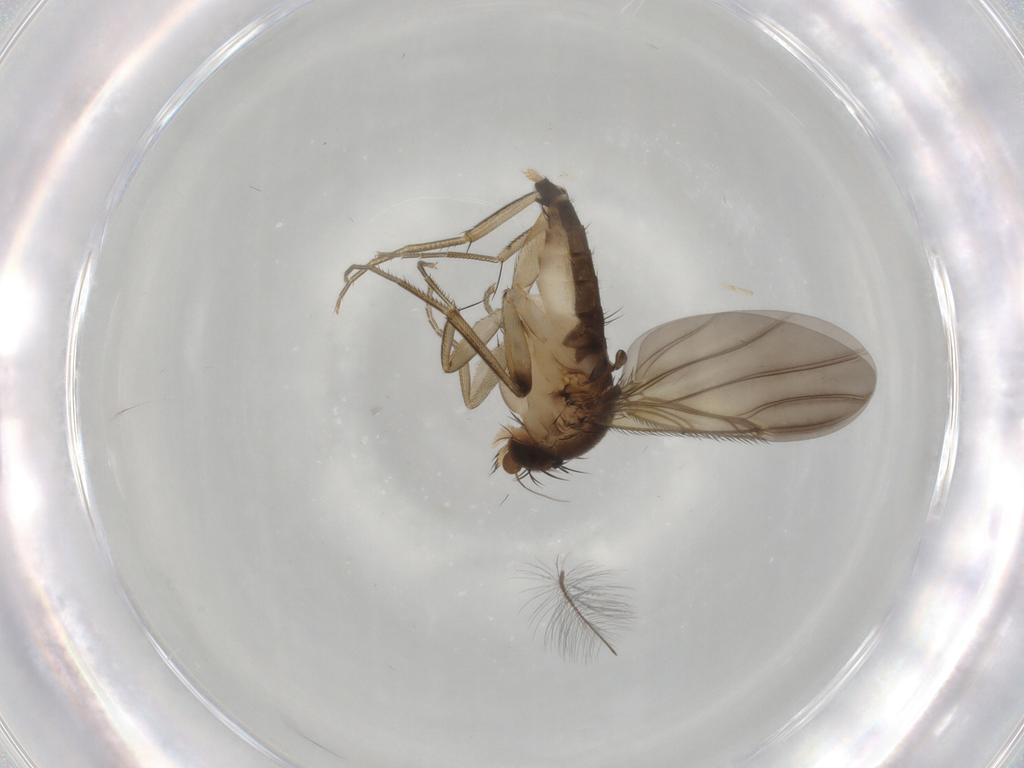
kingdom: Animalia
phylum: Arthropoda
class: Insecta
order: Diptera
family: Phoridae
